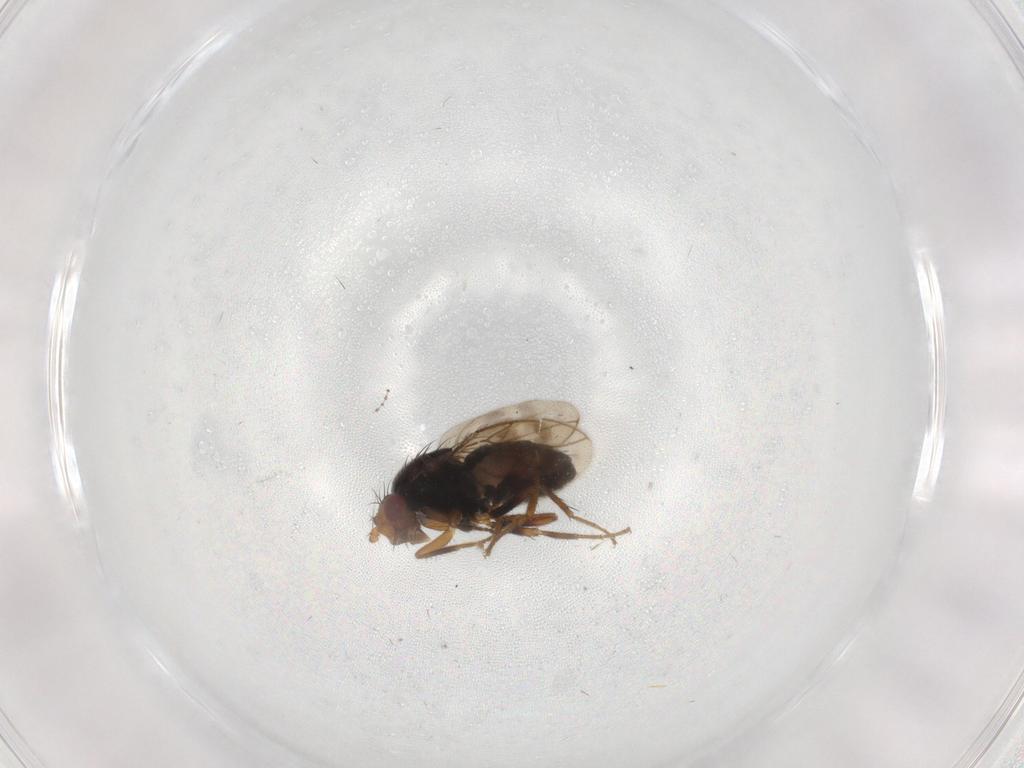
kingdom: Animalia
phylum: Arthropoda
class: Insecta
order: Diptera
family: Sphaeroceridae
